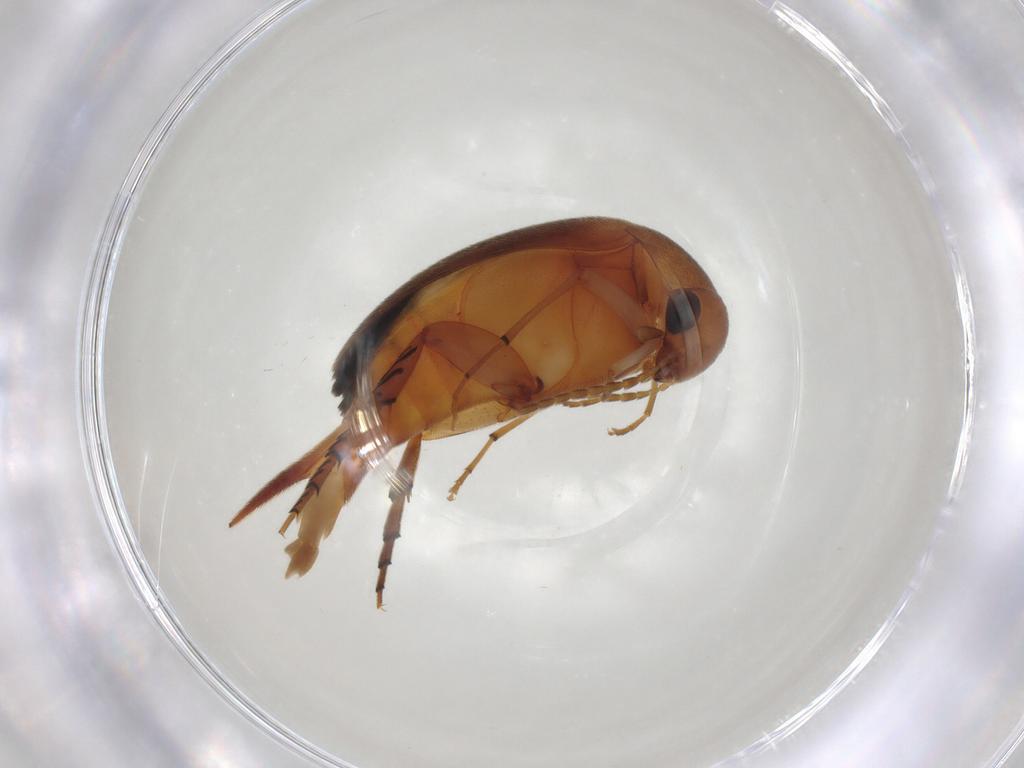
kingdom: Animalia
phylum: Arthropoda
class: Insecta
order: Coleoptera
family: Mordellidae
